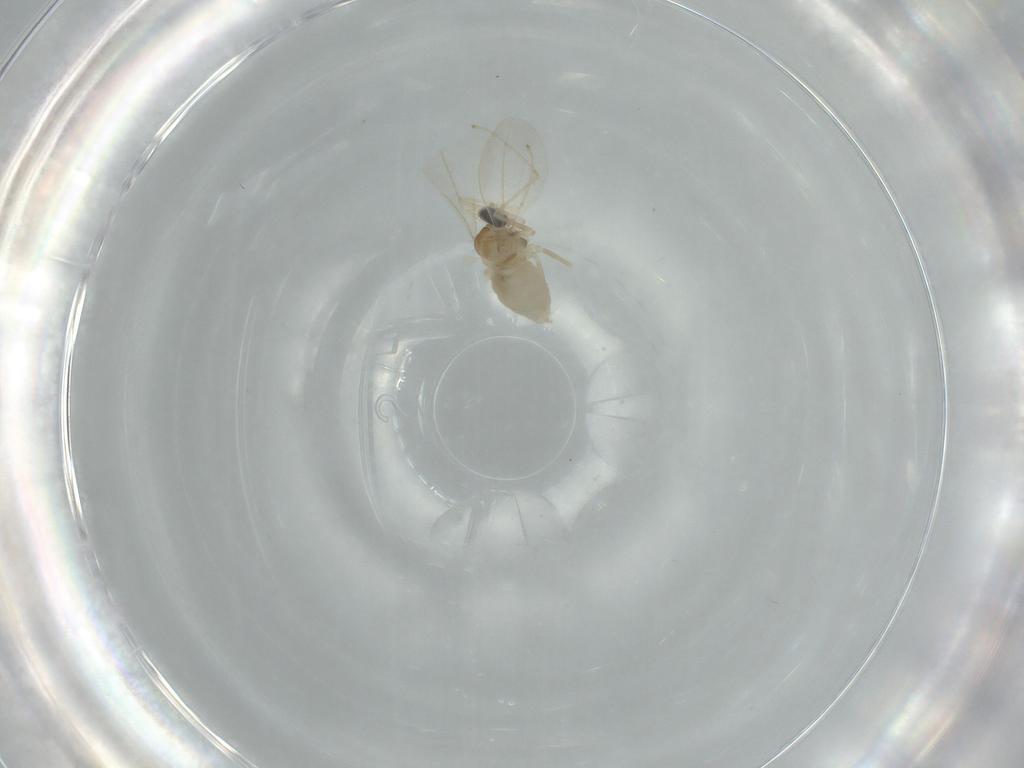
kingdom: Animalia
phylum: Arthropoda
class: Insecta
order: Diptera
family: Cecidomyiidae
